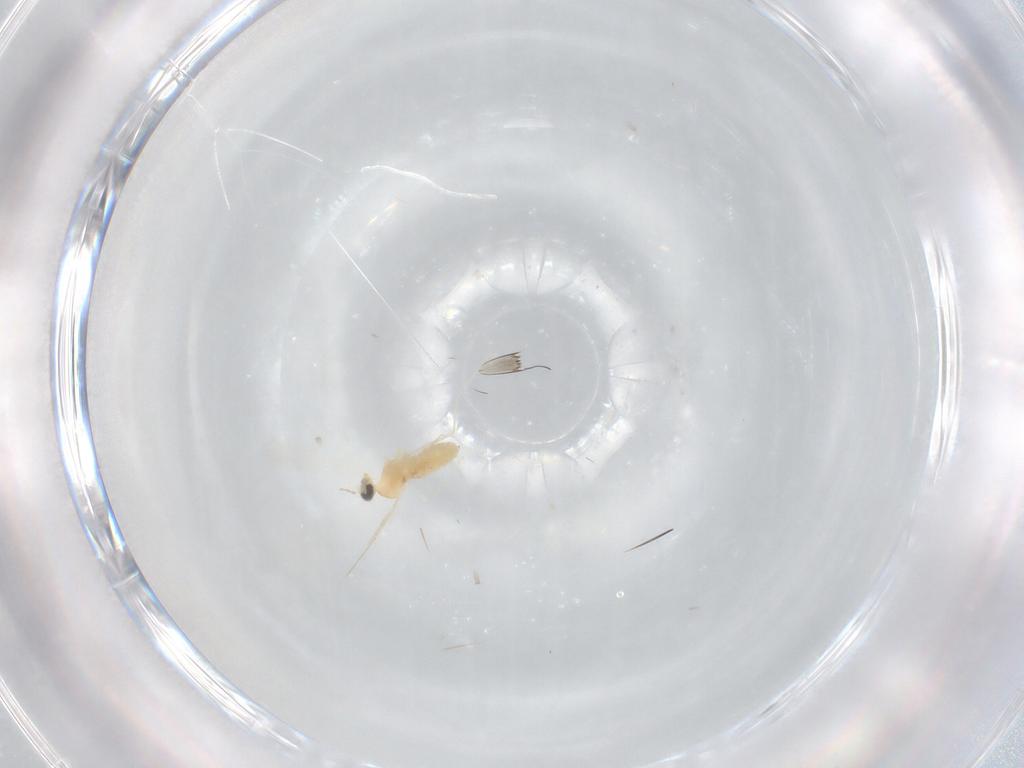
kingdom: Animalia
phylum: Arthropoda
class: Insecta
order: Diptera
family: Cecidomyiidae
